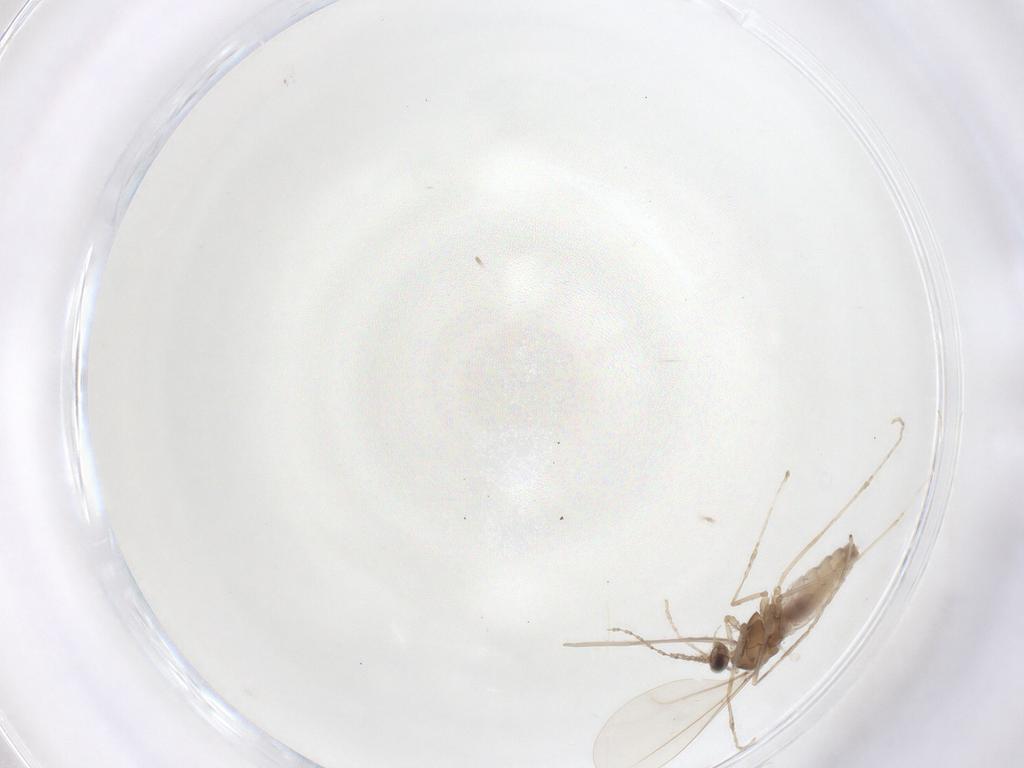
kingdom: Animalia
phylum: Arthropoda
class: Insecta
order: Diptera
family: Cecidomyiidae
